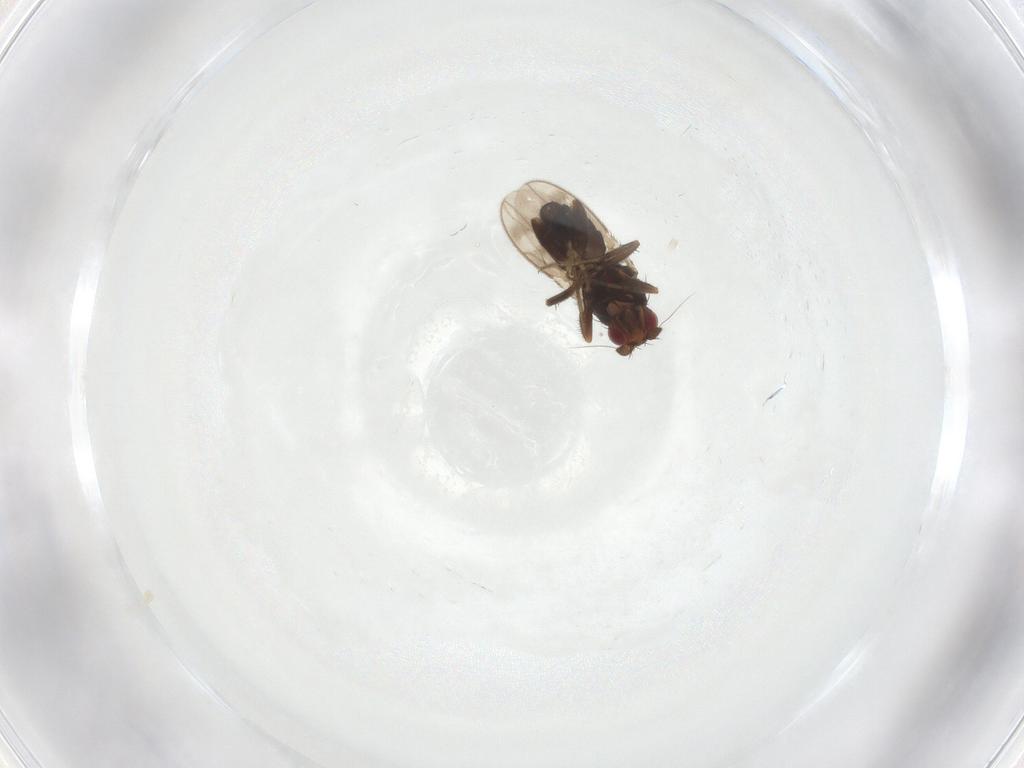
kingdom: Animalia
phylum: Arthropoda
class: Insecta
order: Diptera
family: Sphaeroceridae
